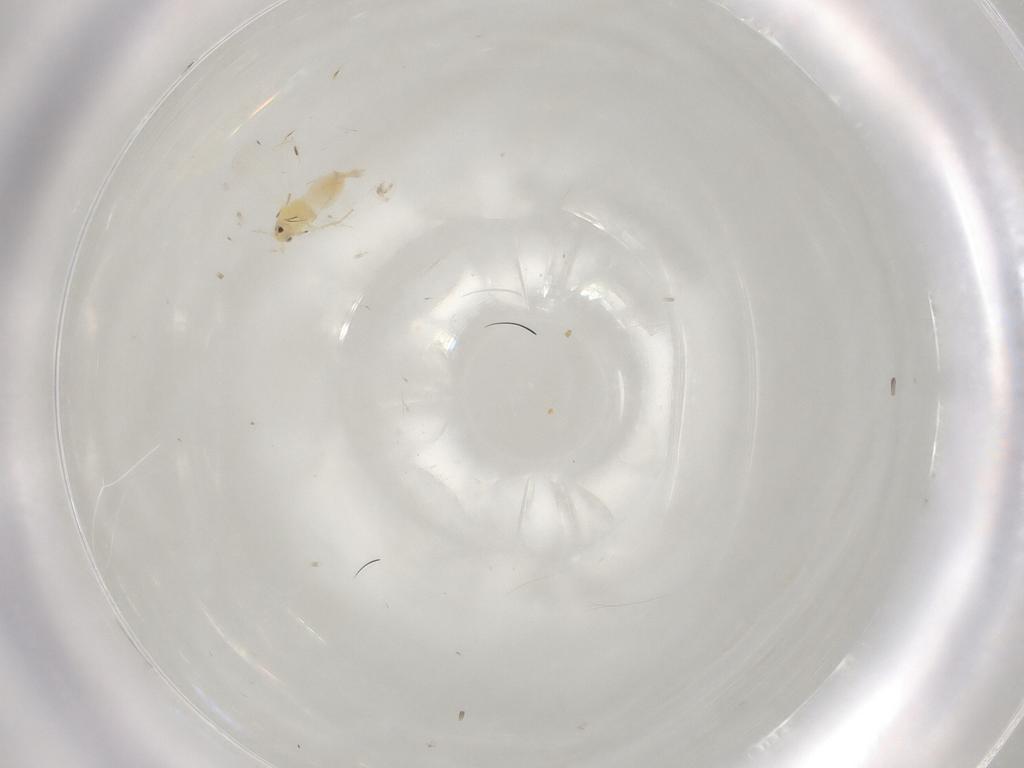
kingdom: Animalia
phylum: Arthropoda
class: Insecta
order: Hemiptera
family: Aleyrodidae
